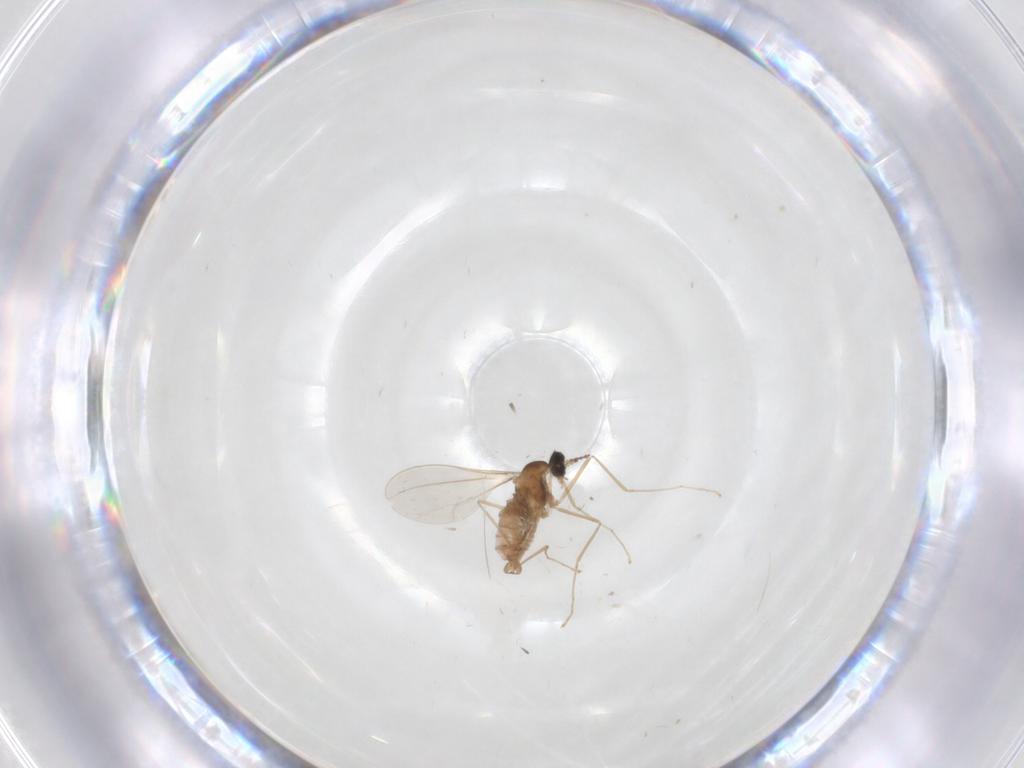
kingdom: Animalia
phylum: Arthropoda
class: Insecta
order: Diptera
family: Cecidomyiidae
